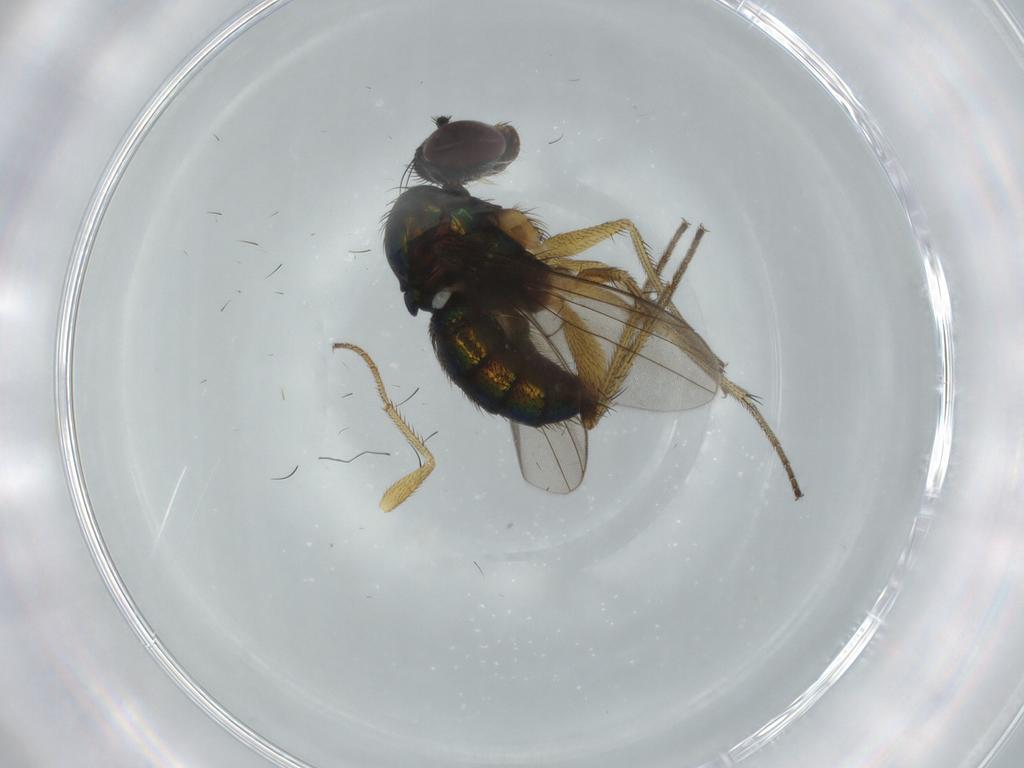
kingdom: Animalia
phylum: Arthropoda
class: Insecta
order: Diptera
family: Dolichopodidae
